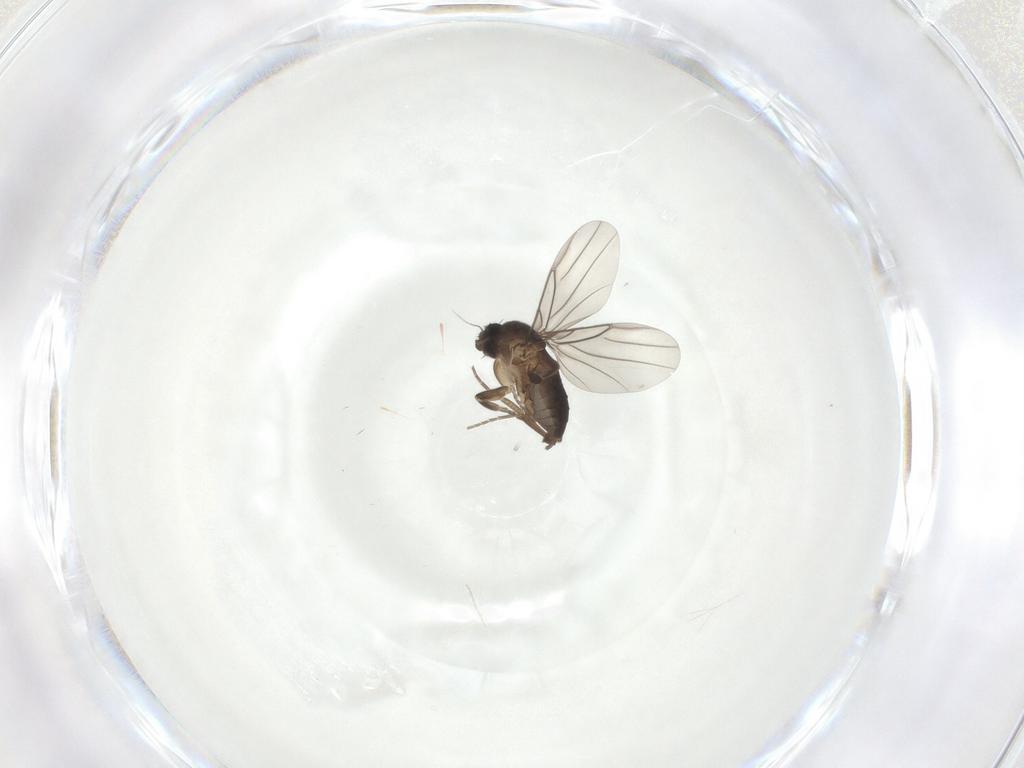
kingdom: Animalia
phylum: Arthropoda
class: Insecta
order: Diptera
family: Phoridae
